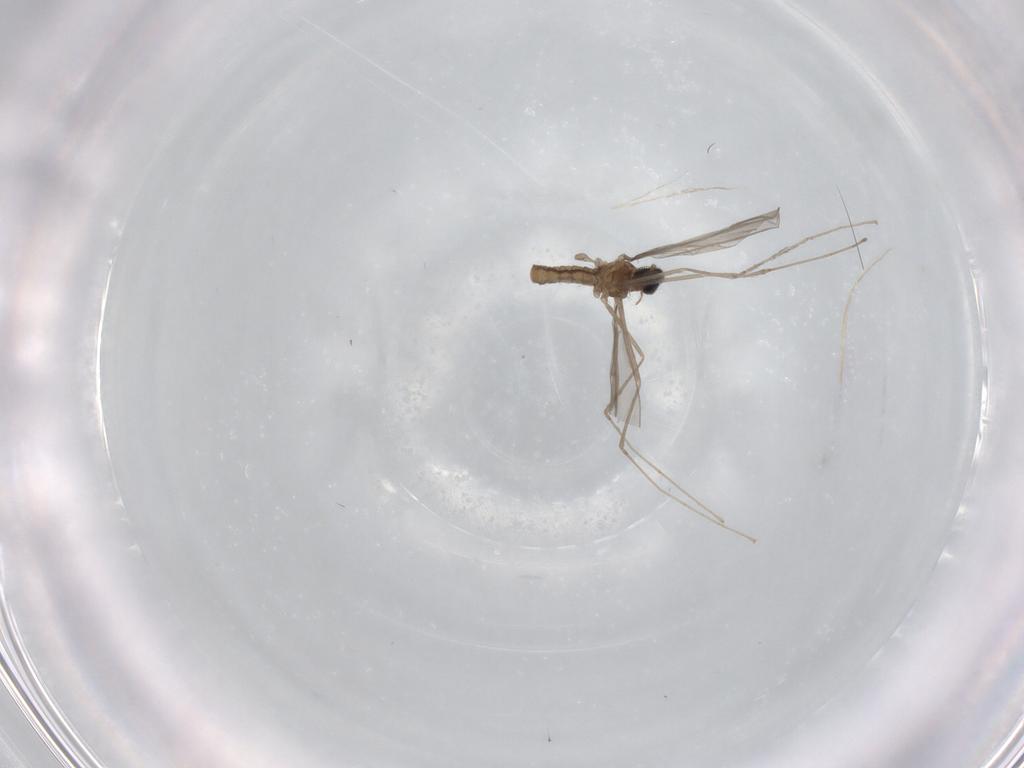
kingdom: Animalia
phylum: Arthropoda
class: Insecta
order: Diptera
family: Cecidomyiidae
